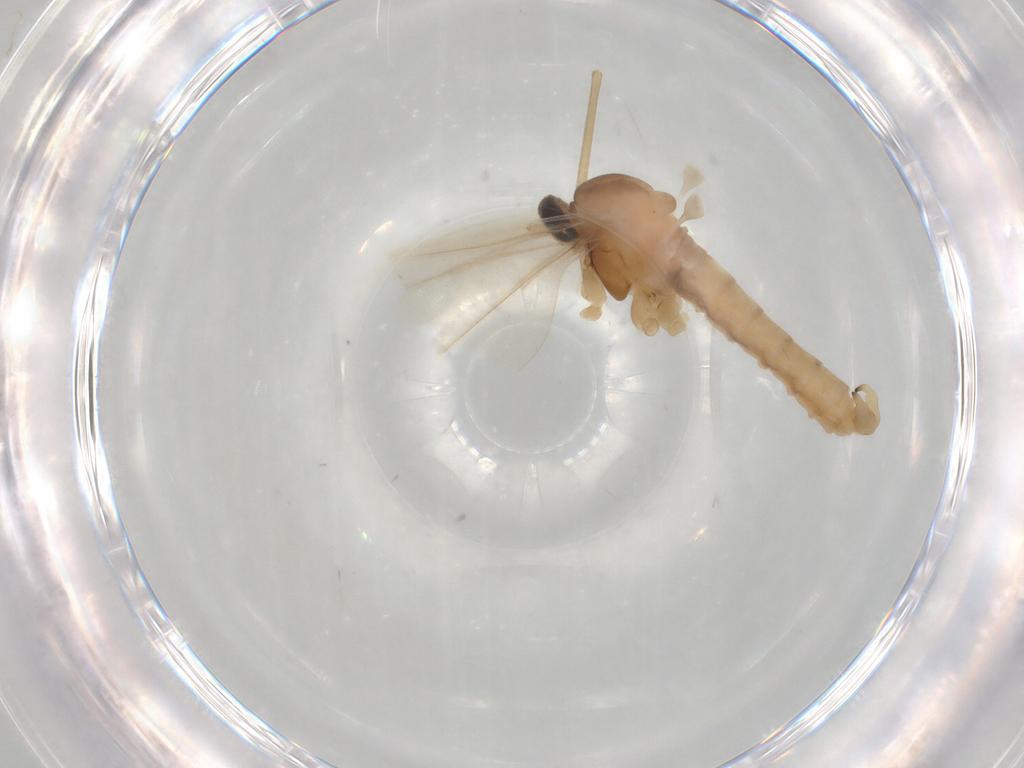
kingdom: Animalia
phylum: Arthropoda
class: Insecta
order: Diptera
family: Cecidomyiidae
